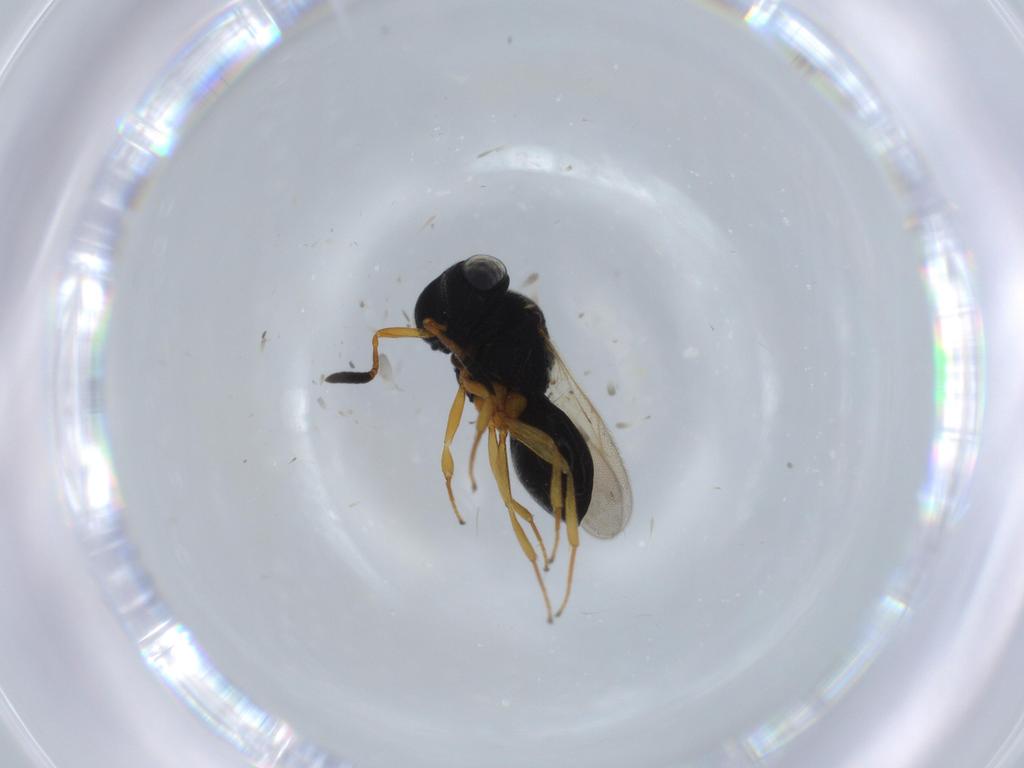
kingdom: Animalia
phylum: Arthropoda
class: Insecta
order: Hymenoptera
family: Scelionidae
